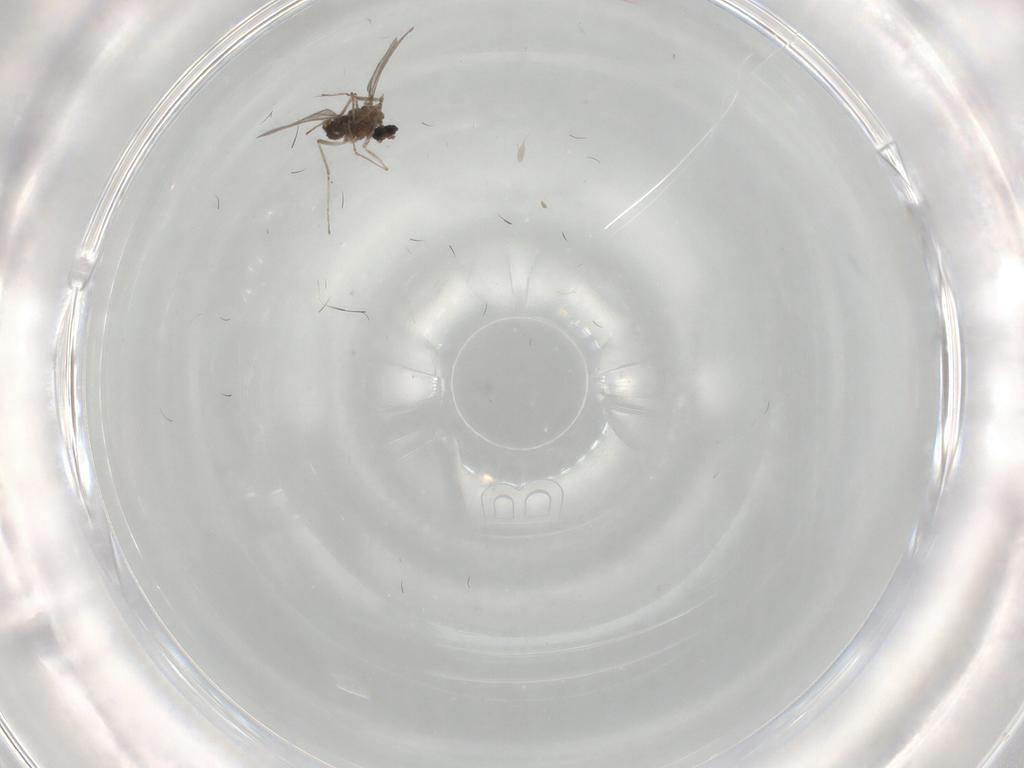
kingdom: Animalia
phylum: Arthropoda
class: Insecta
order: Diptera
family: Cecidomyiidae
